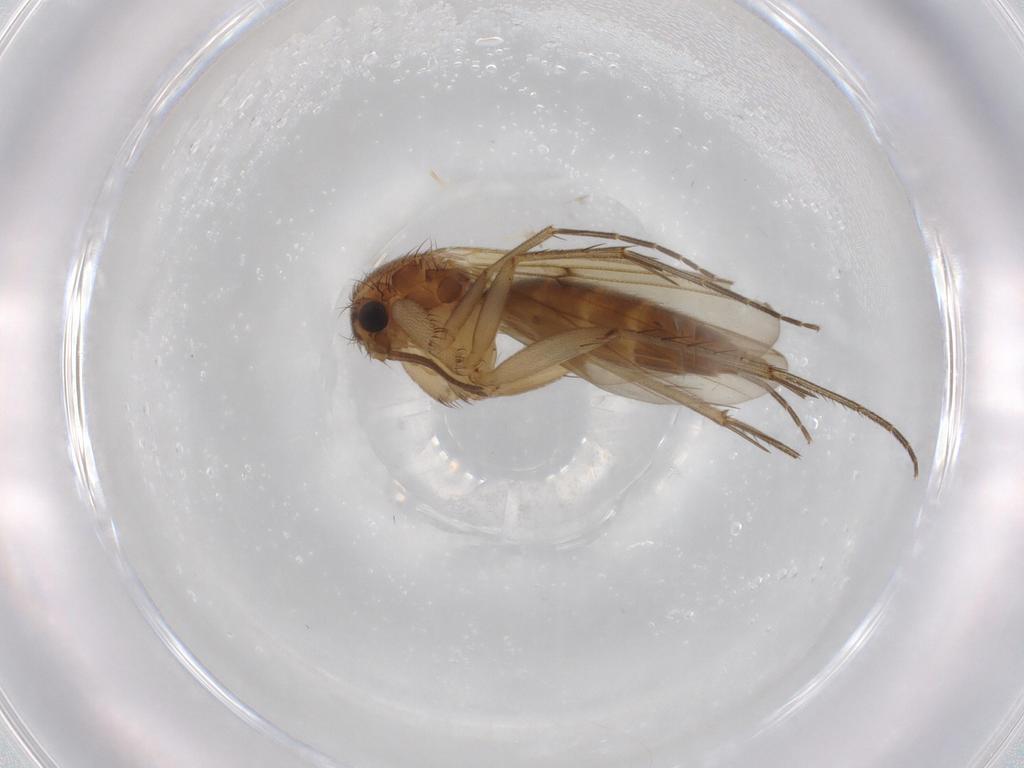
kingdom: Animalia
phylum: Arthropoda
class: Insecta
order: Diptera
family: Mycetophilidae
